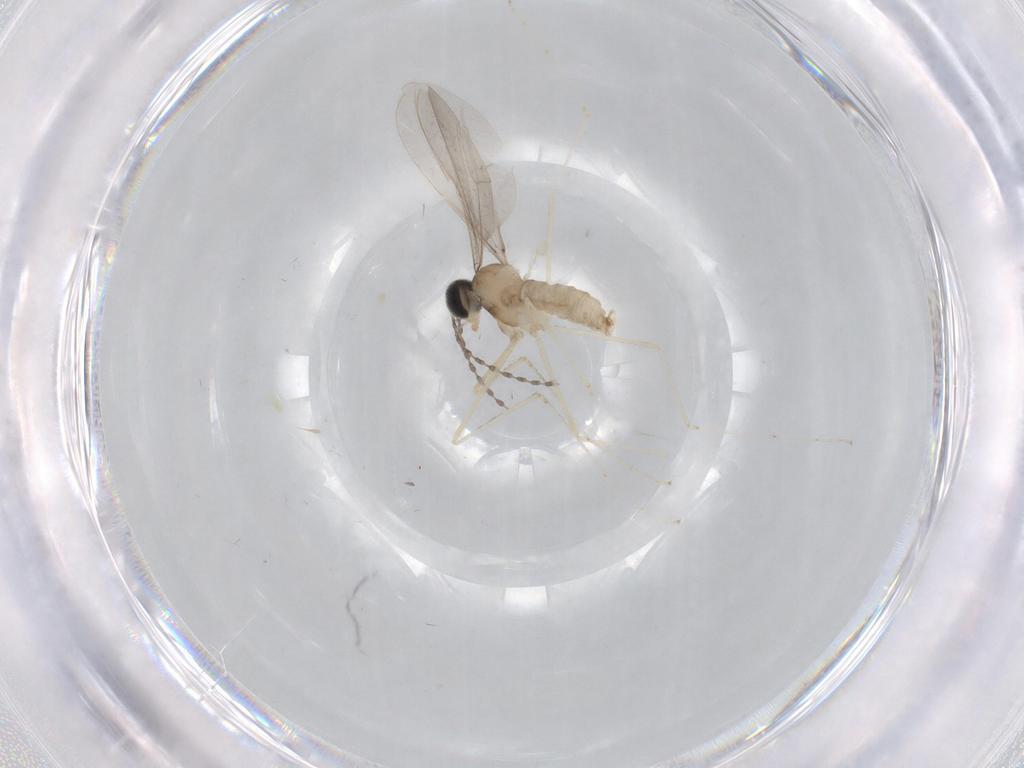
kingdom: Animalia
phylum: Arthropoda
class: Insecta
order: Diptera
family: Cecidomyiidae
